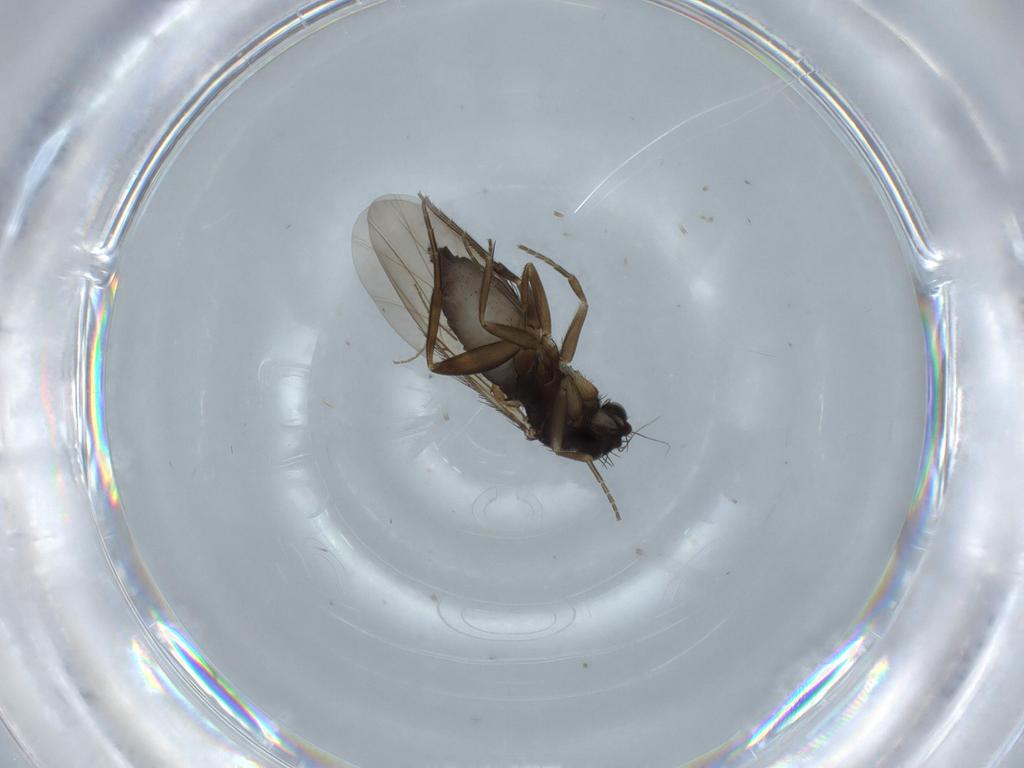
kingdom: Animalia
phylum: Arthropoda
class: Insecta
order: Diptera
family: Phoridae
